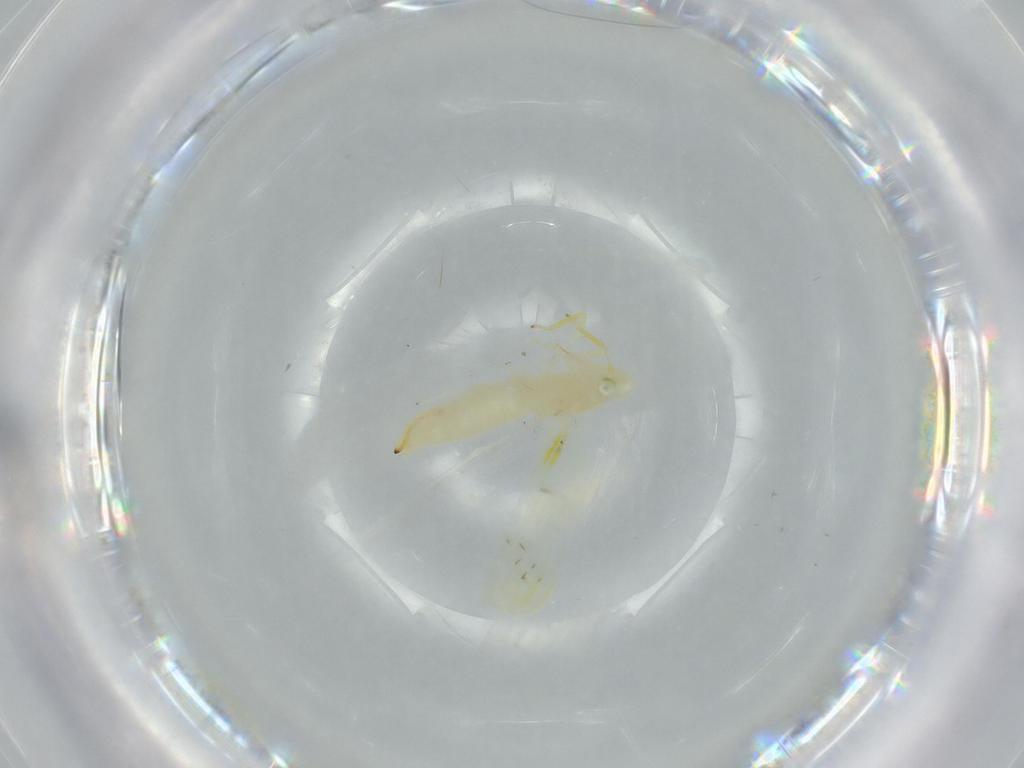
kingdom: Animalia
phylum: Arthropoda
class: Insecta
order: Hemiptera
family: Cicadellidae
